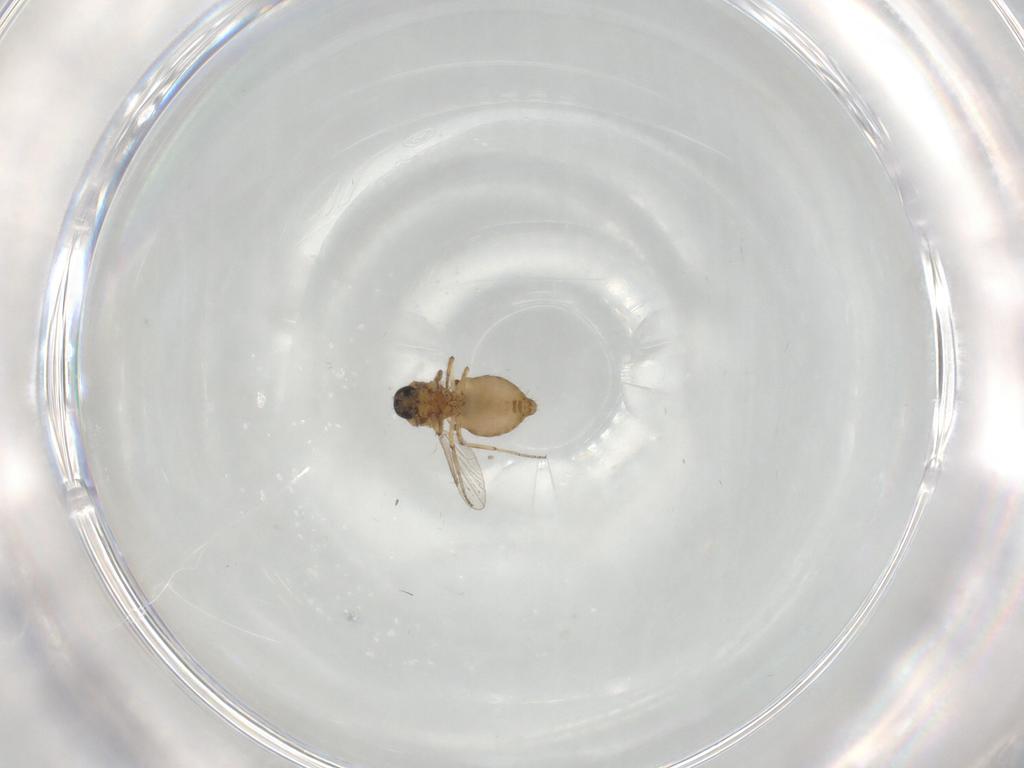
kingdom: Animalia
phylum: Arthropoda
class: Insecta
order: Diptera
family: Ceratopogonidae
